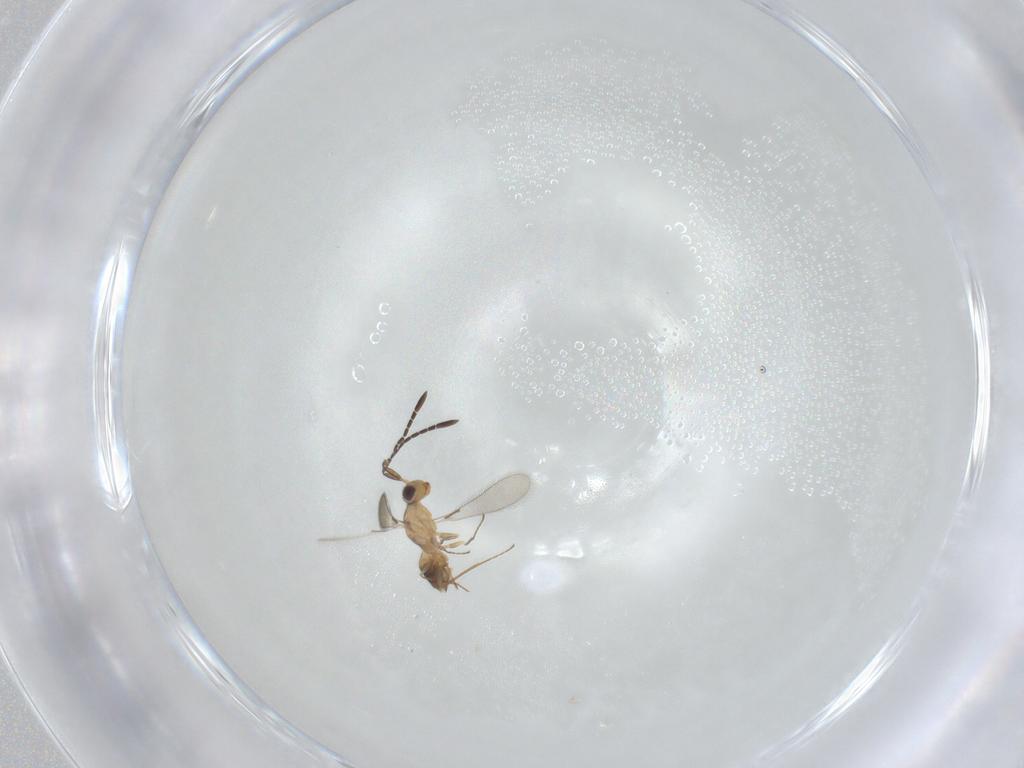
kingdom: Animalia
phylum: Arthropoda
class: Insecta
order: Hymenoptera
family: Mymaridae
